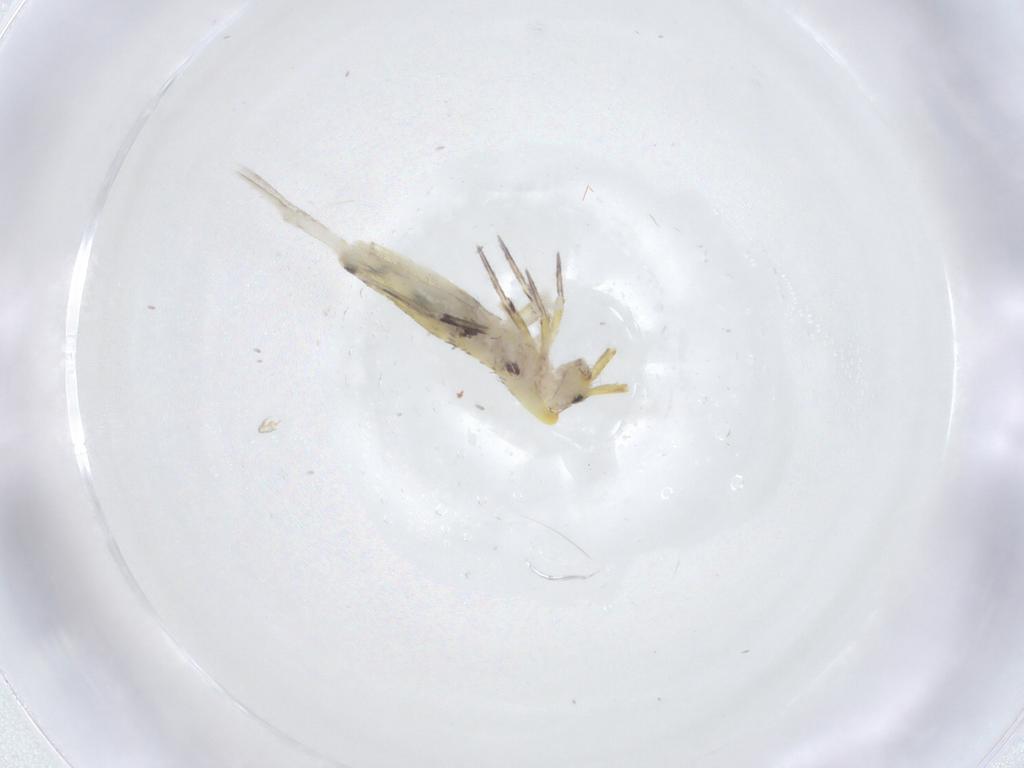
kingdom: Animalia
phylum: Arthropoda
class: Collembola
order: Entomobryomorpha
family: Entomobryidae
